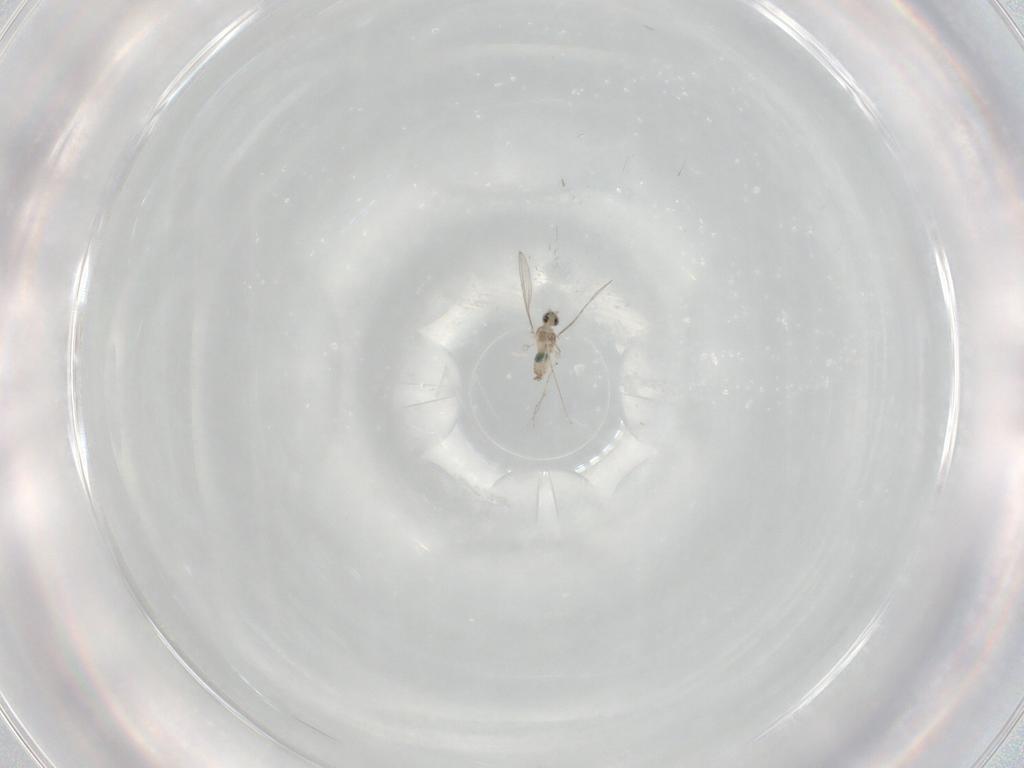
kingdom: Animalia
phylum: Arthropoda
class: Insecta
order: Diptera
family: Cecidomyiidae
